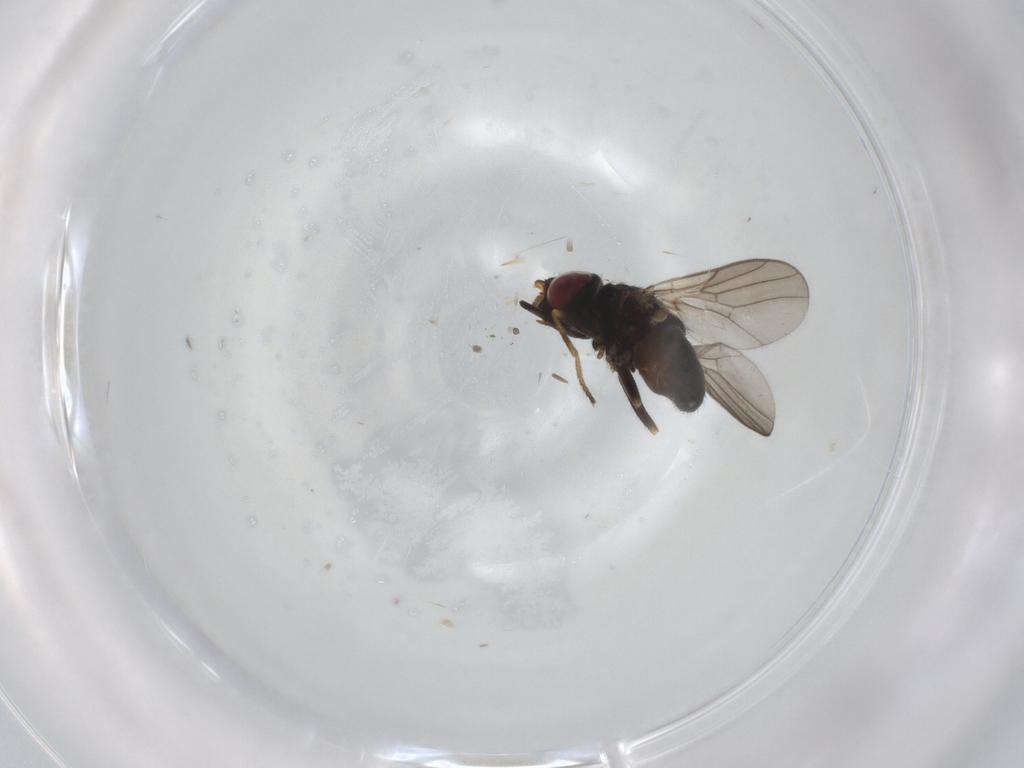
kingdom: Animalia
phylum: Arthropoda
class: Insecta
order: Diptera
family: Chloropidae
